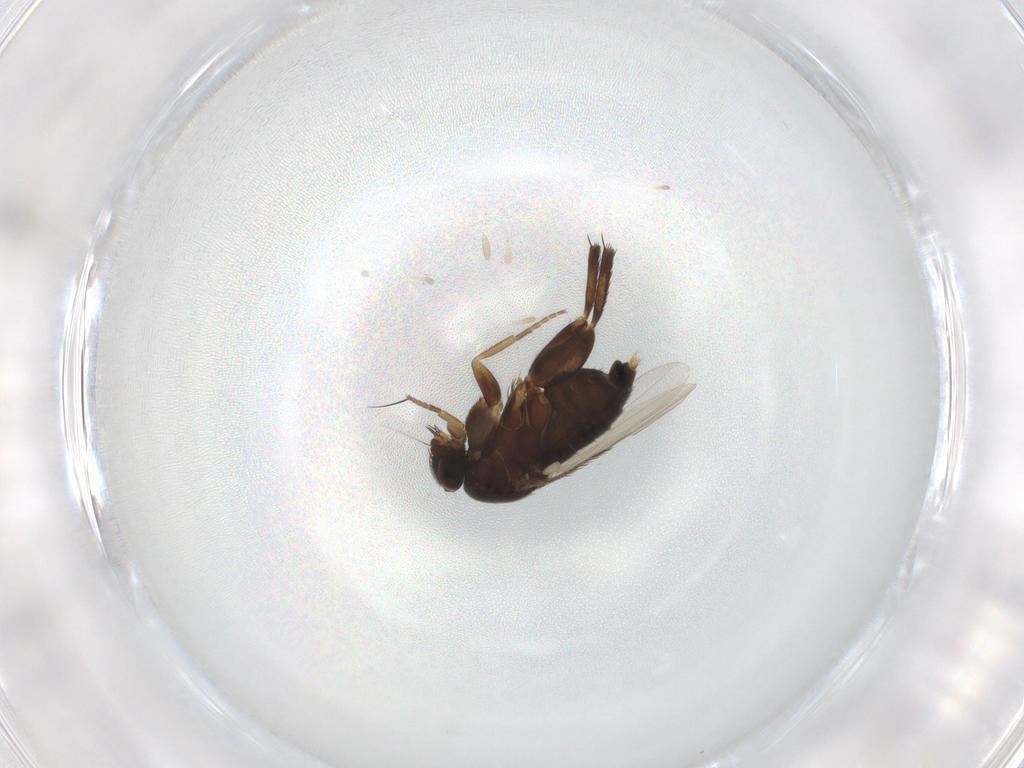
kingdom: Animalia
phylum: Arthropoda
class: Insecta
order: Diptera
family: Phoridae
